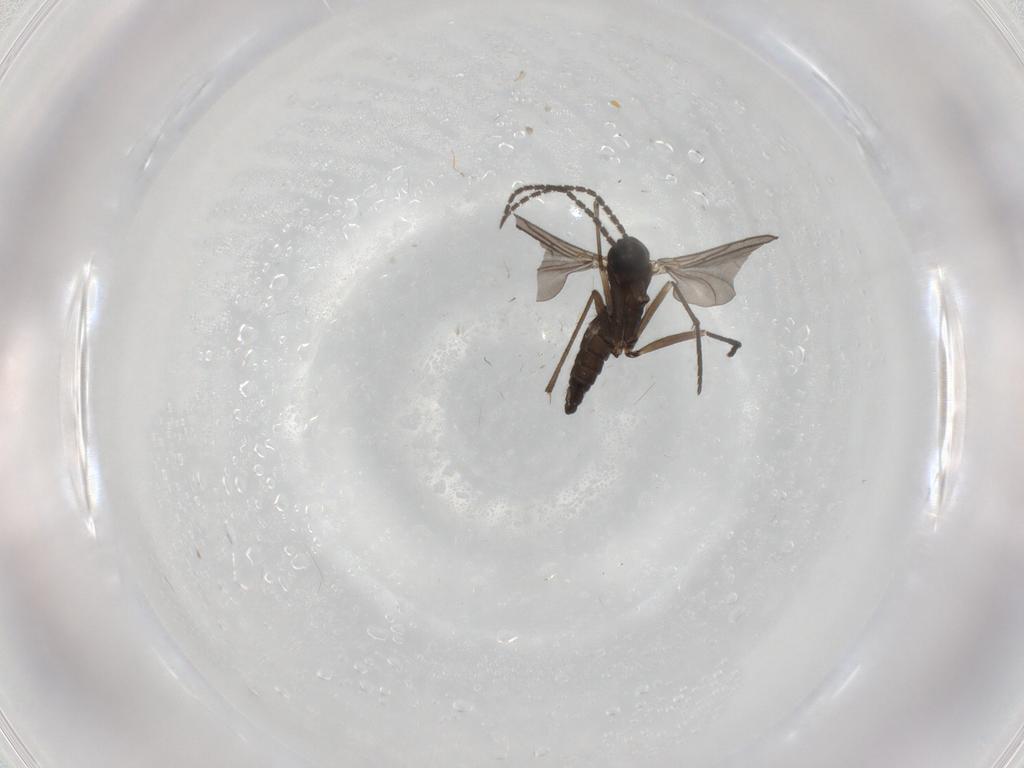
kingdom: Animalia
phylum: Arthropoda
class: Insecta
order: Diptera
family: Sciaridae
